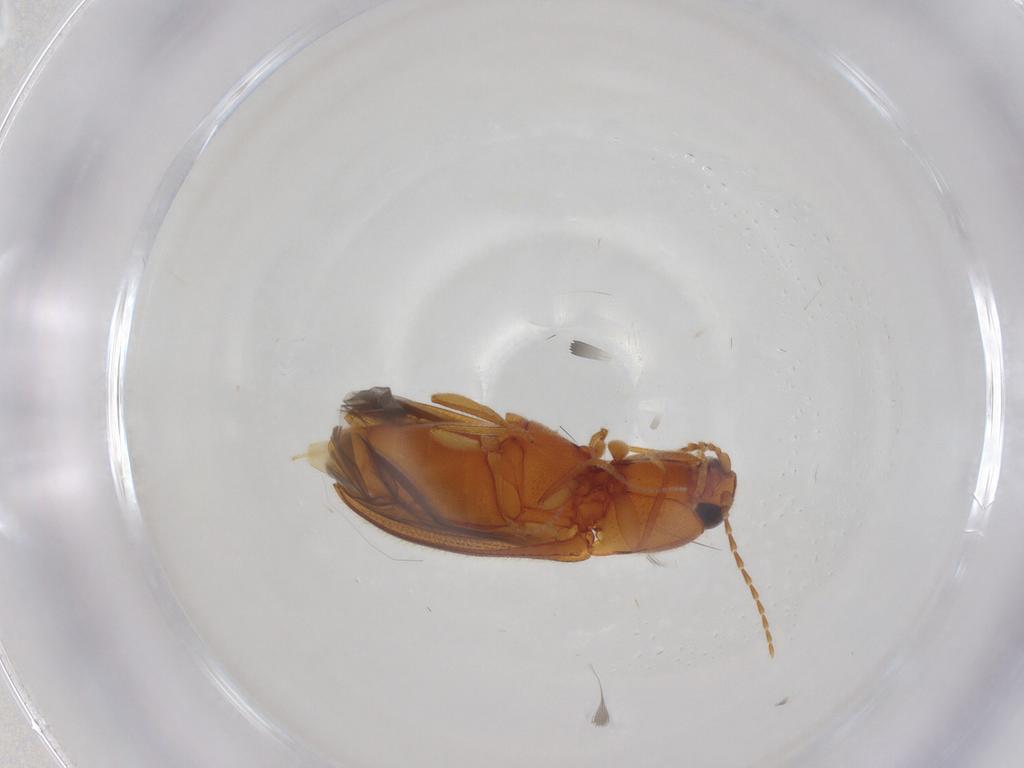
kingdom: Animalia
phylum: Arthropoda
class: Insecta
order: Coleoptera
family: Elateridae
